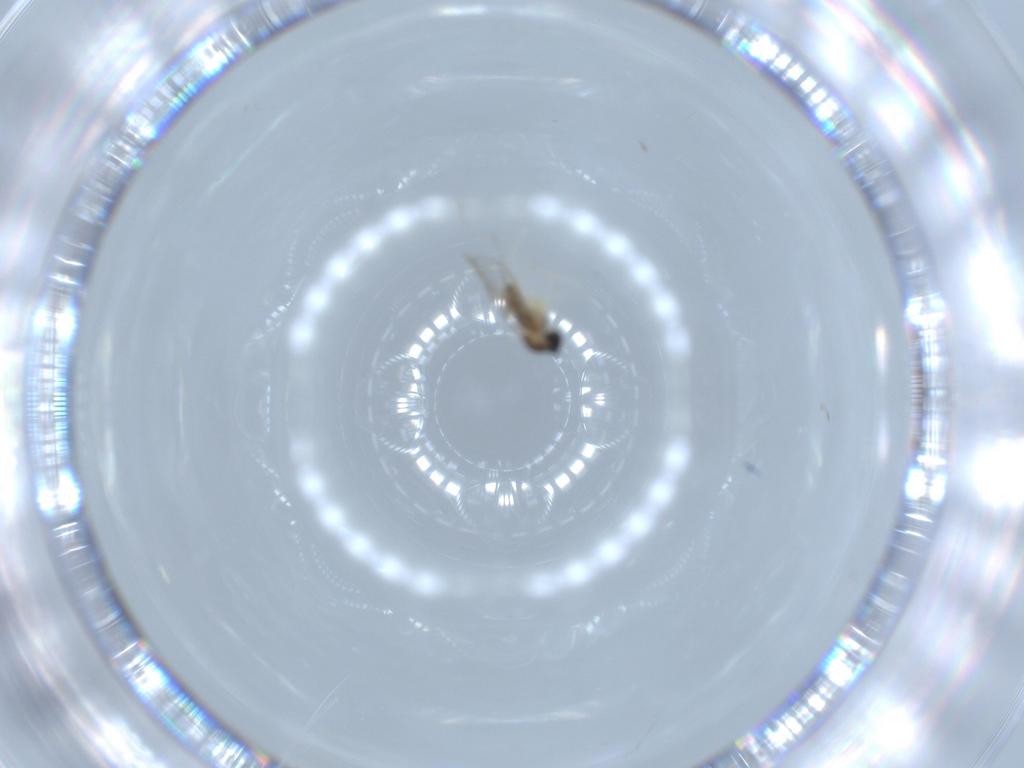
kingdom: Animalia
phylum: Arthropoda
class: Insecta
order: Diptera
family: Cecidomyiidae
